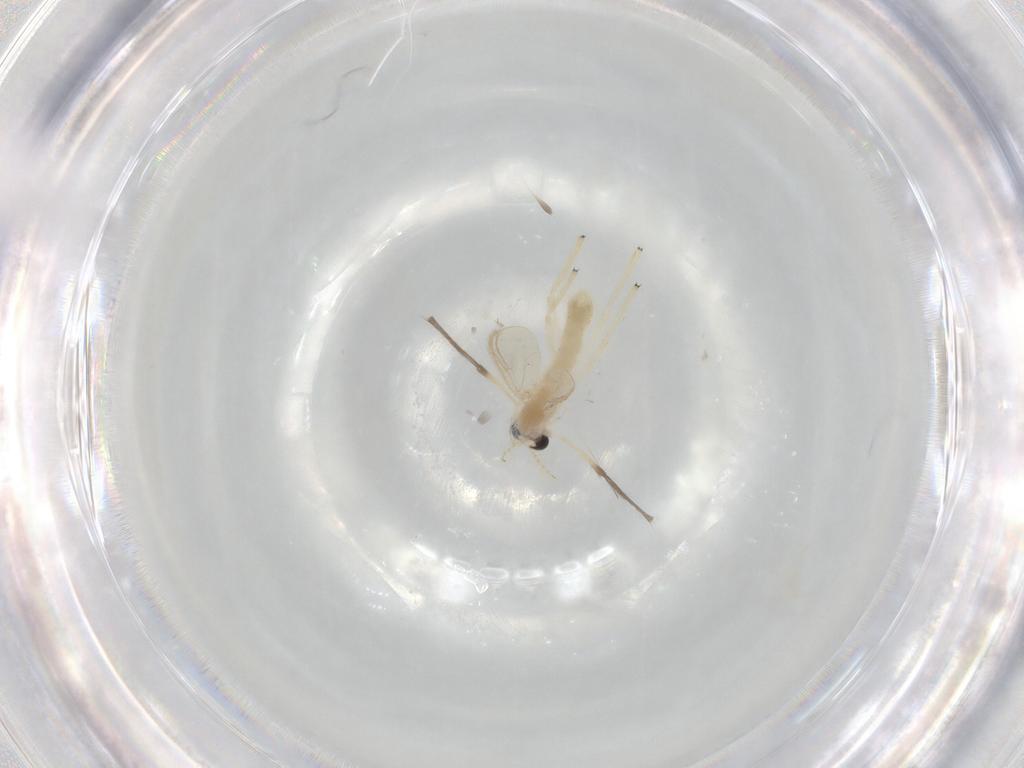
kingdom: Animalia
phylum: Arthropoda
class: Insecta
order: Diptera
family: Chironomidae
